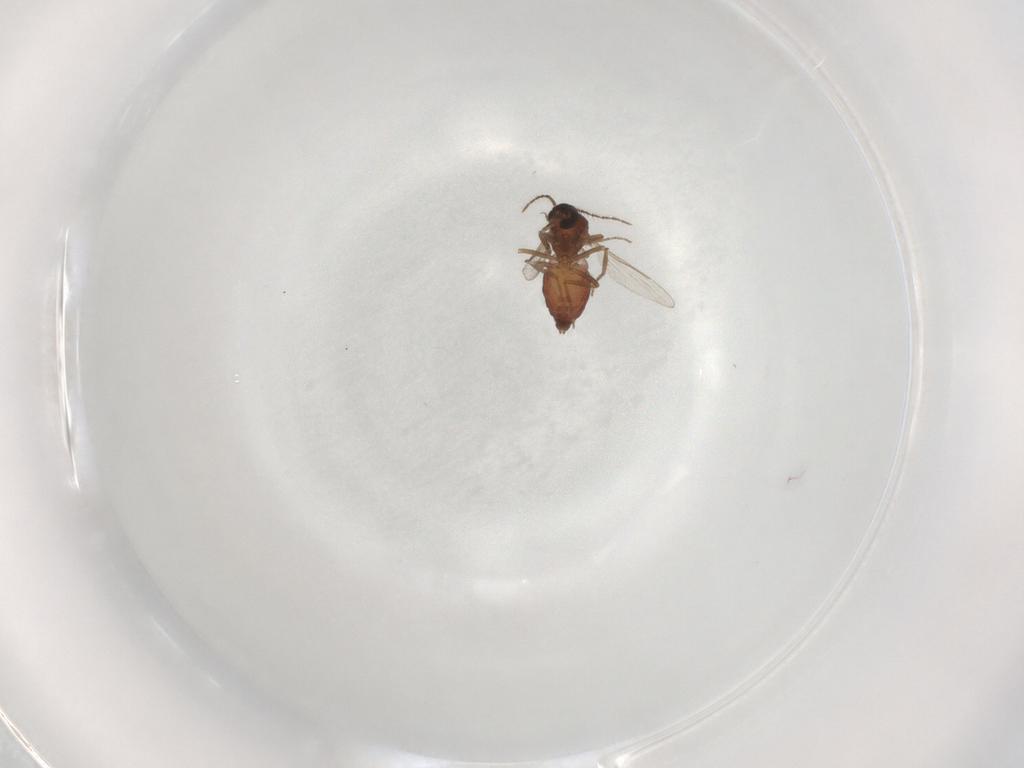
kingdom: Animalia
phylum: Arthropoda
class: Insecta
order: Diptera
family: Ceratopogonidae
